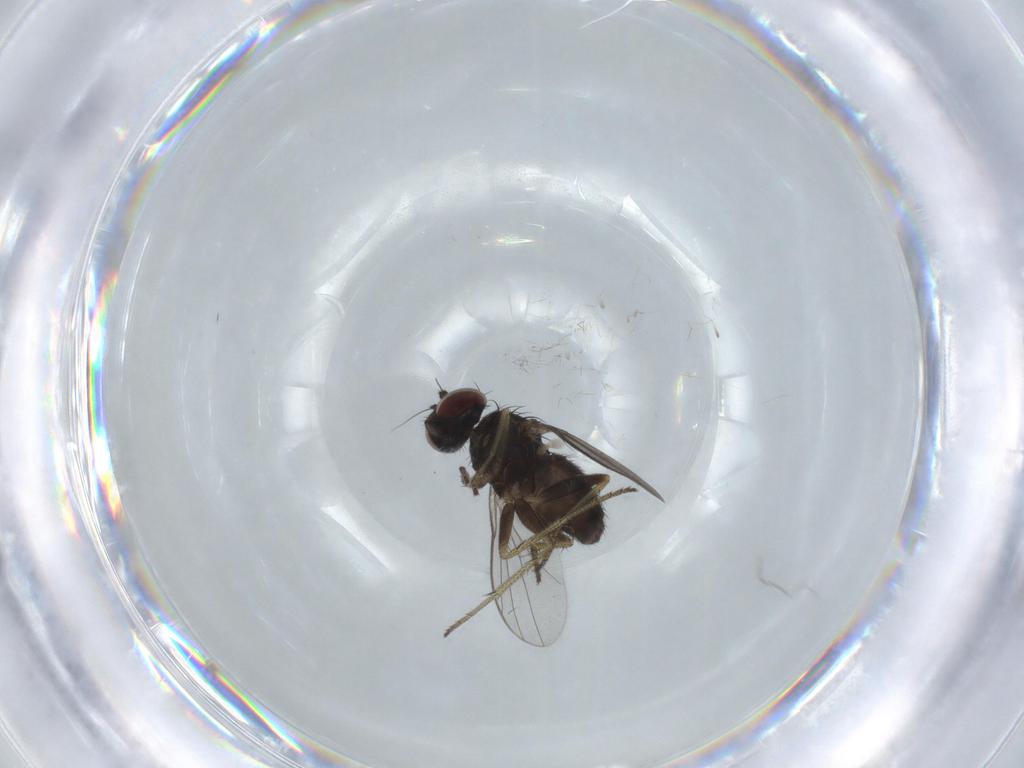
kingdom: Animalia
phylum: Arthropoda
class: Insecta
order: Diptera
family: Dolichopodidae
